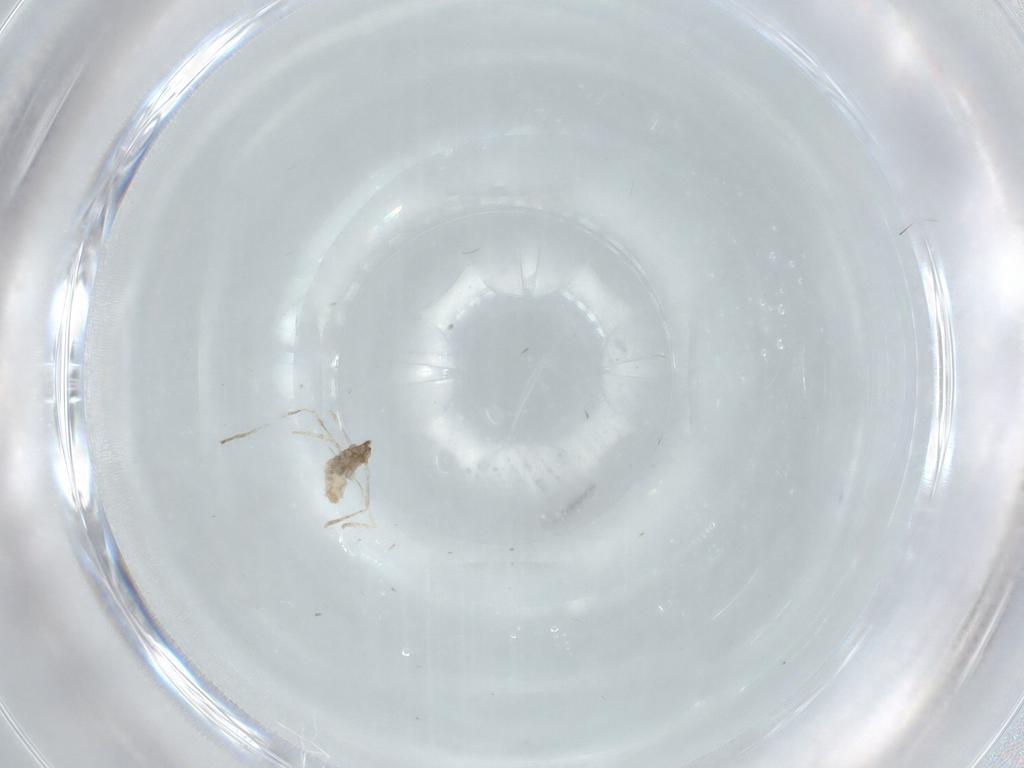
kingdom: Animalia
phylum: Arthropoda
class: Insecta
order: Diptera
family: Cecidomyiidae
